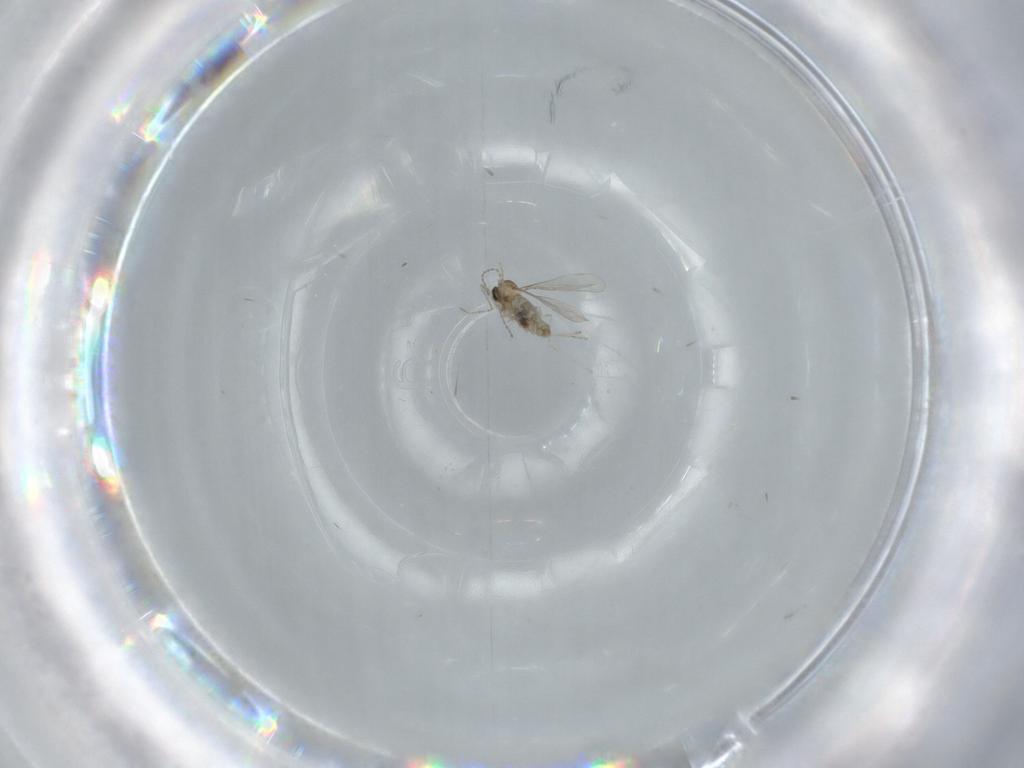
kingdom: Animalia
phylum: Arthropoda
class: Insecta
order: Diptera
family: Cecidomyiidae
